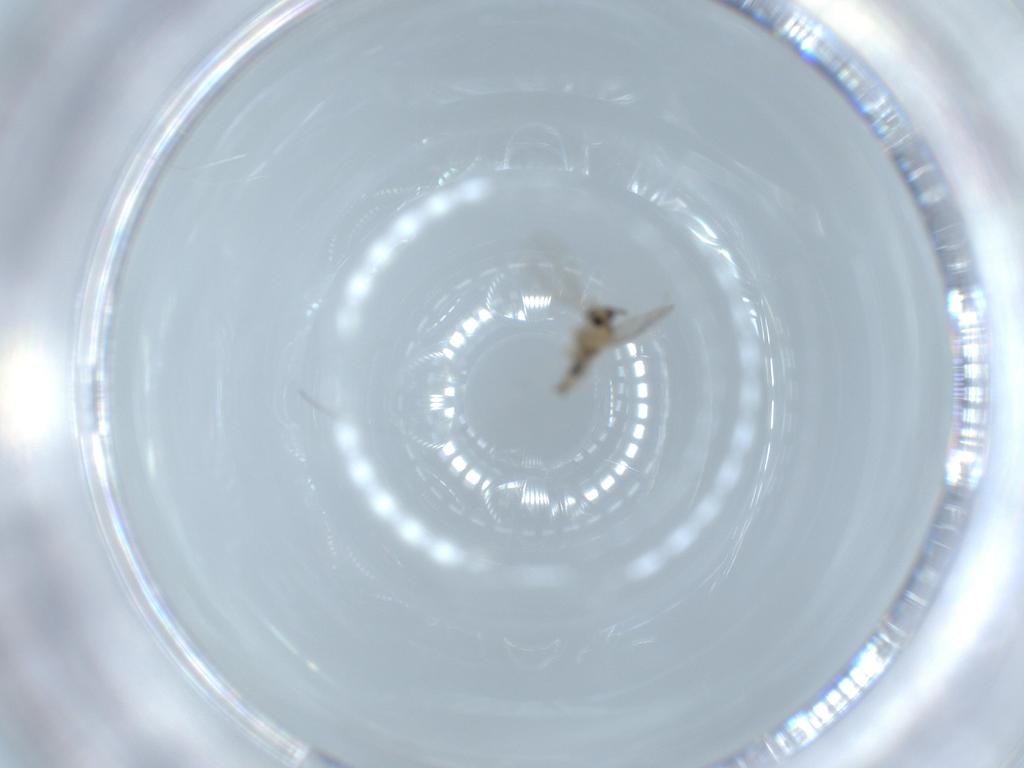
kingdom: Animalia
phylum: Arthropoda
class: Insecta
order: Diptera
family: Cecidomyiidae
